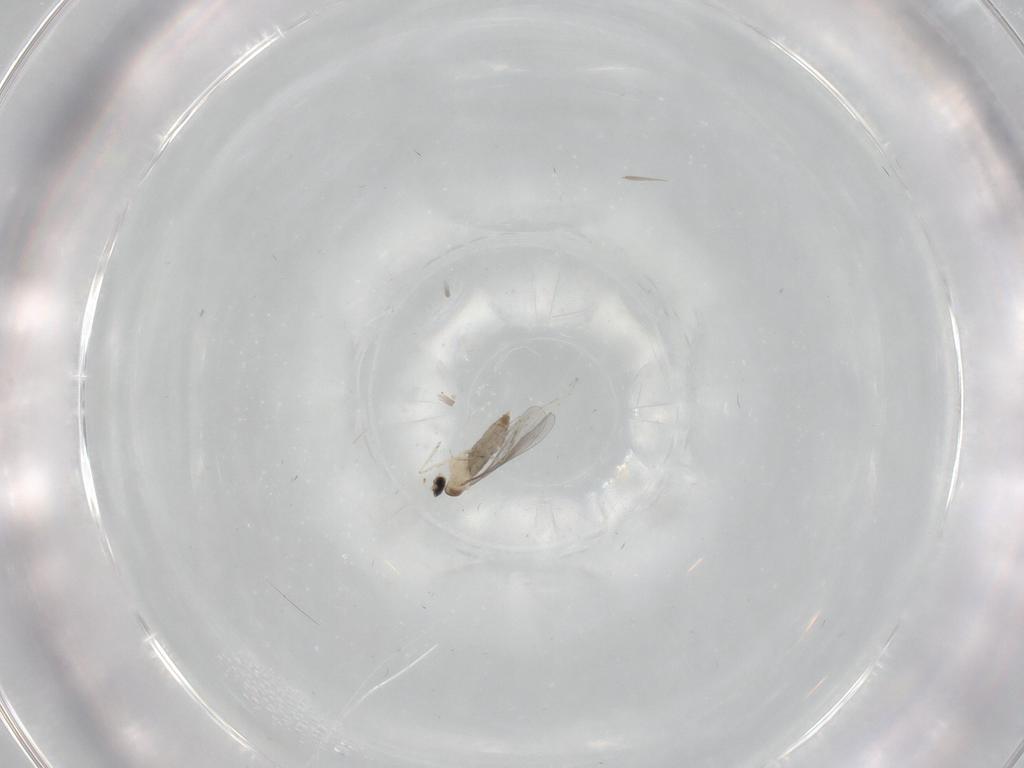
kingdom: Animalia
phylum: Arthropoda
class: Insecta
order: Diptera
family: Cecidomyiidae
